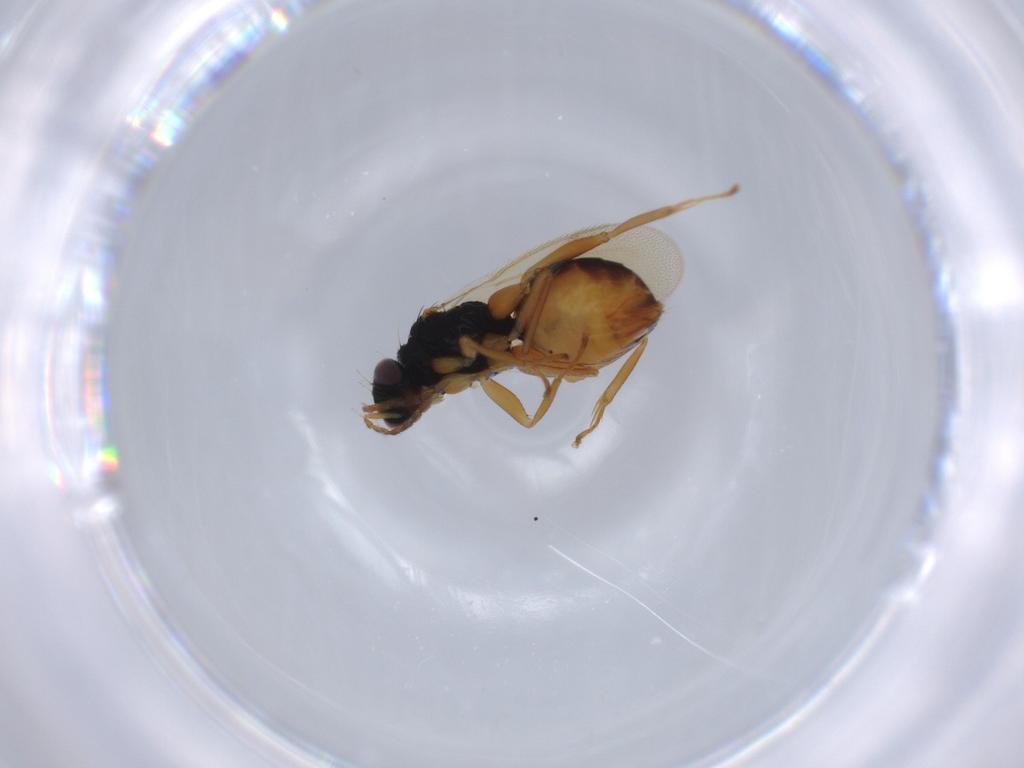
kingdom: Animalia
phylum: Arthropoda
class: Insecta
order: Hymenoptera
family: Eulophidae
